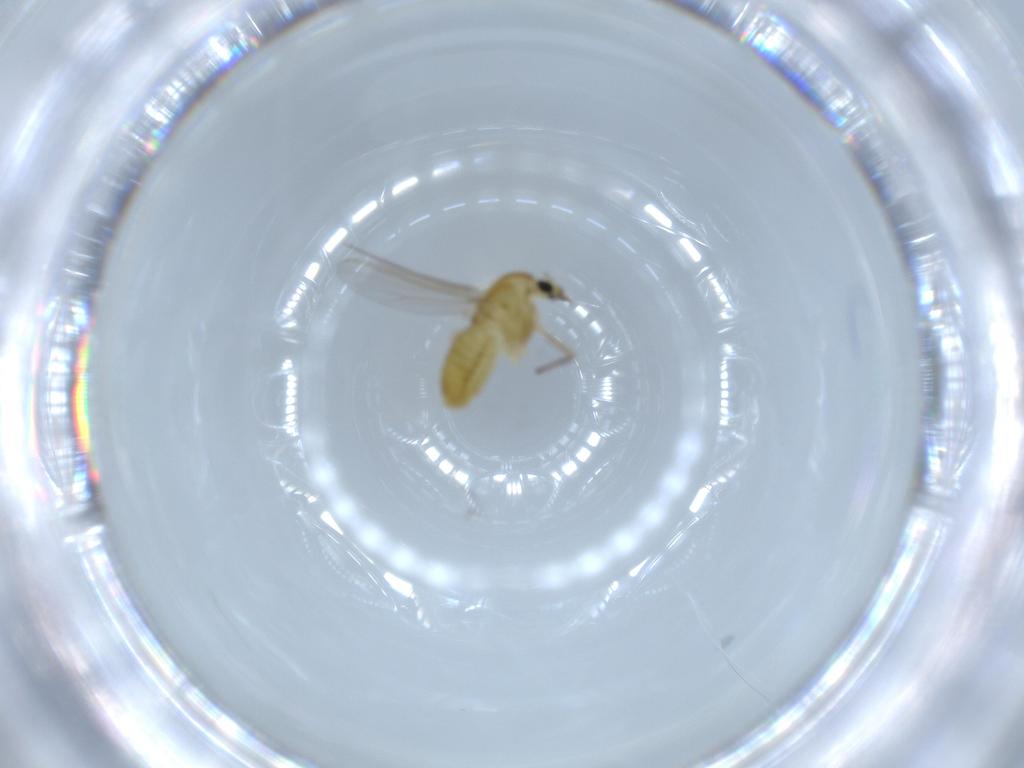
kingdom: Animalia
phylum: Arthropoda
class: Insecta
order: Diptera
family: Chironomidae
